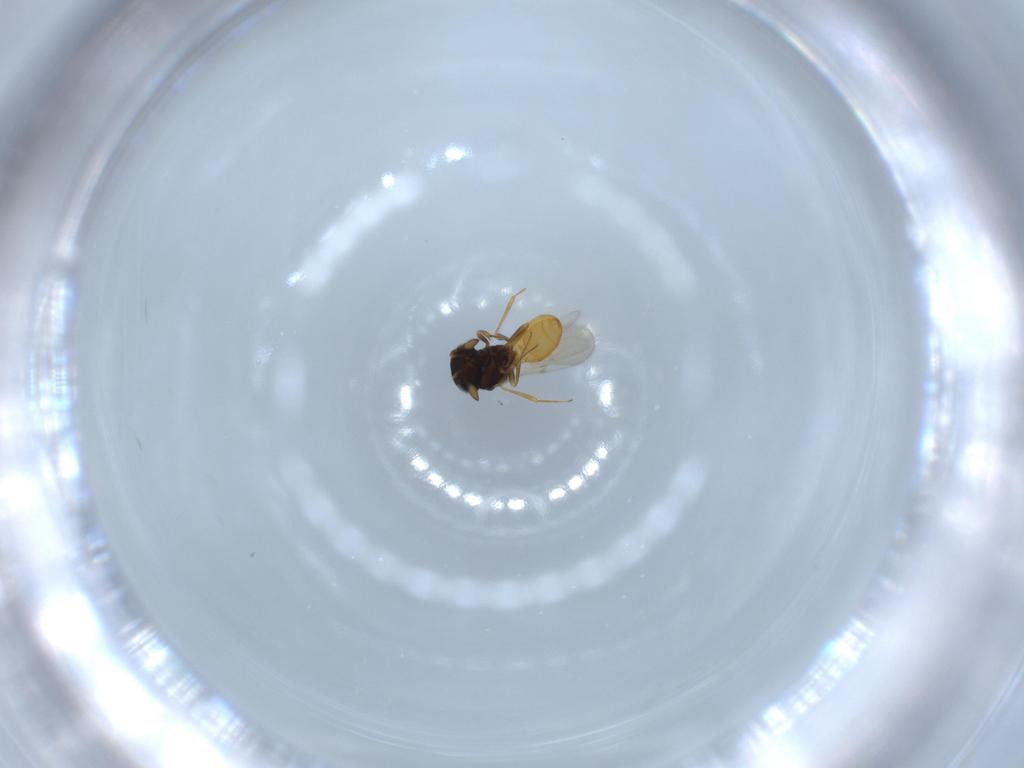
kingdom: Animalia
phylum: Arthropoda
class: Insecta
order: Hymenoptera
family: Scelionidae
